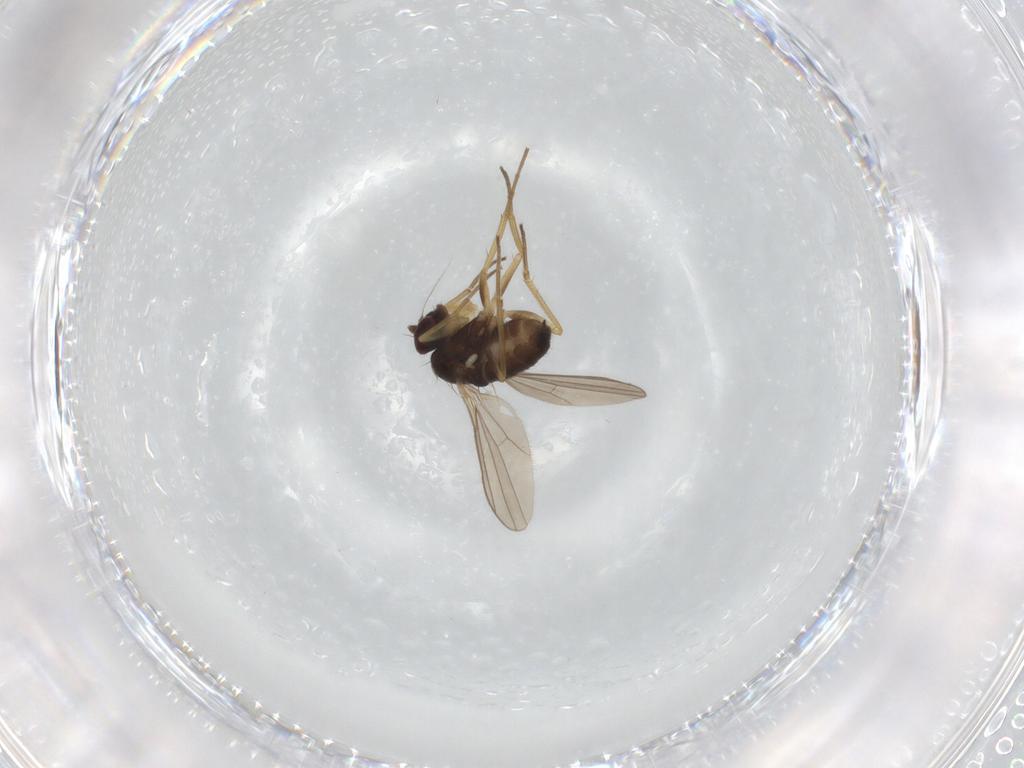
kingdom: Animalia
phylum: Arthropoda
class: Insecta
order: Diptera
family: Dolichopodidae
